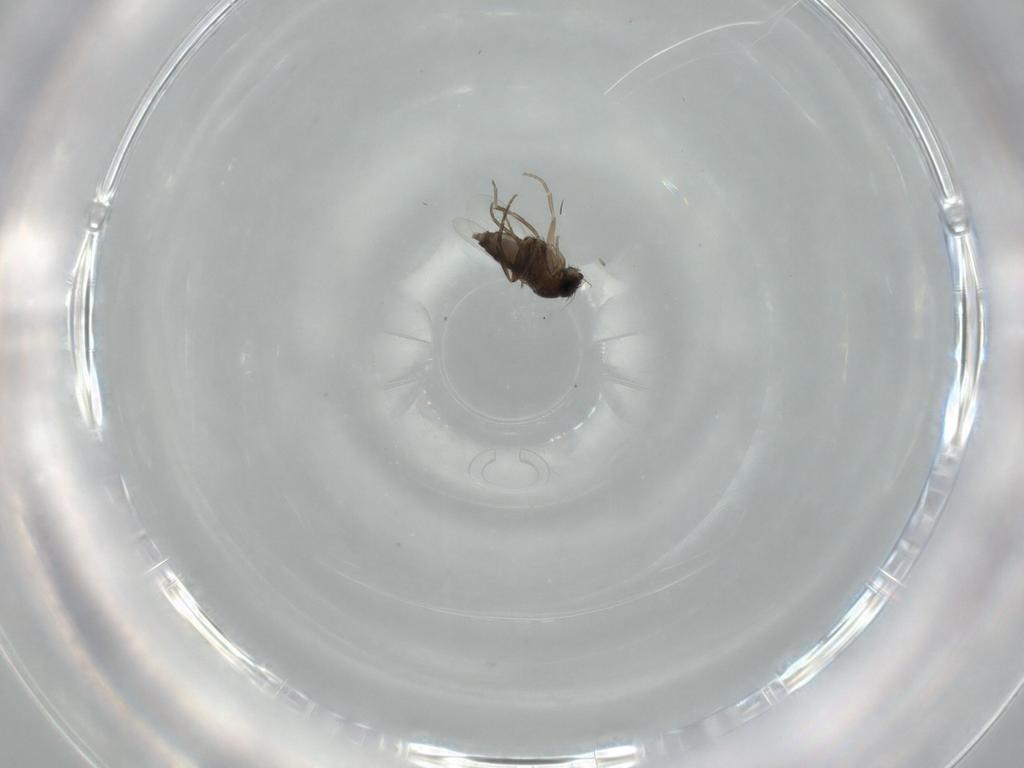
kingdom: Animalia
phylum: Arthropoda
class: Insecta
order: Diptera
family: Phoridae
